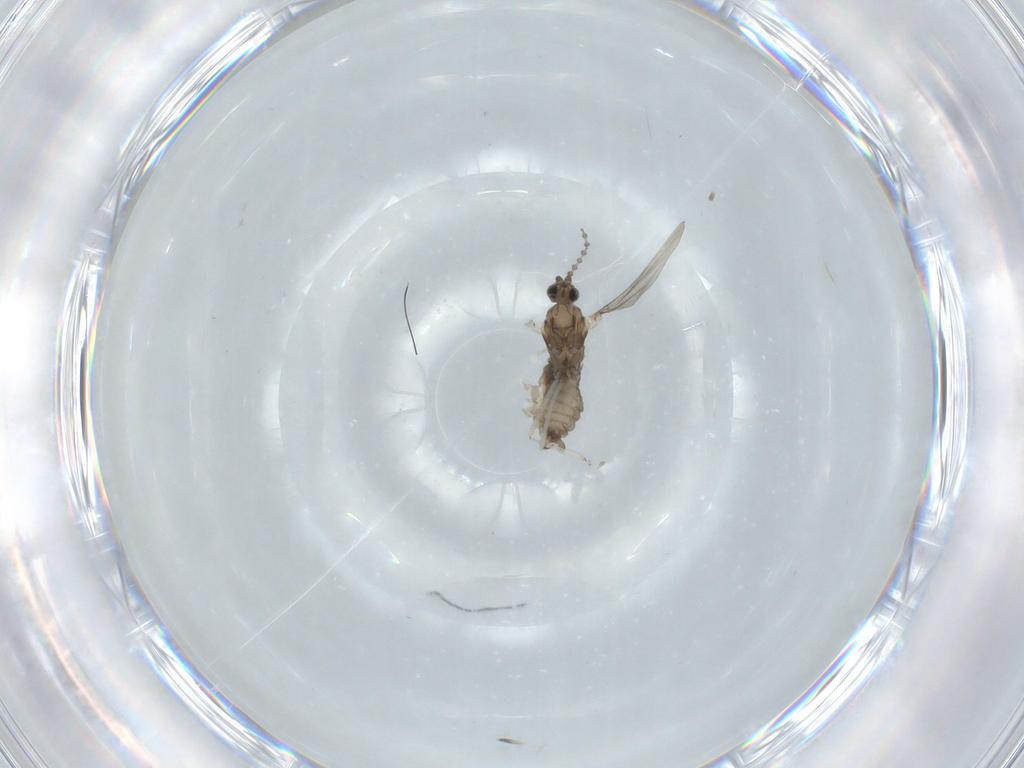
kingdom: Animalia
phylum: Arthropoda
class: Insecta
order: Diptera
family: Cecidomyiidae
